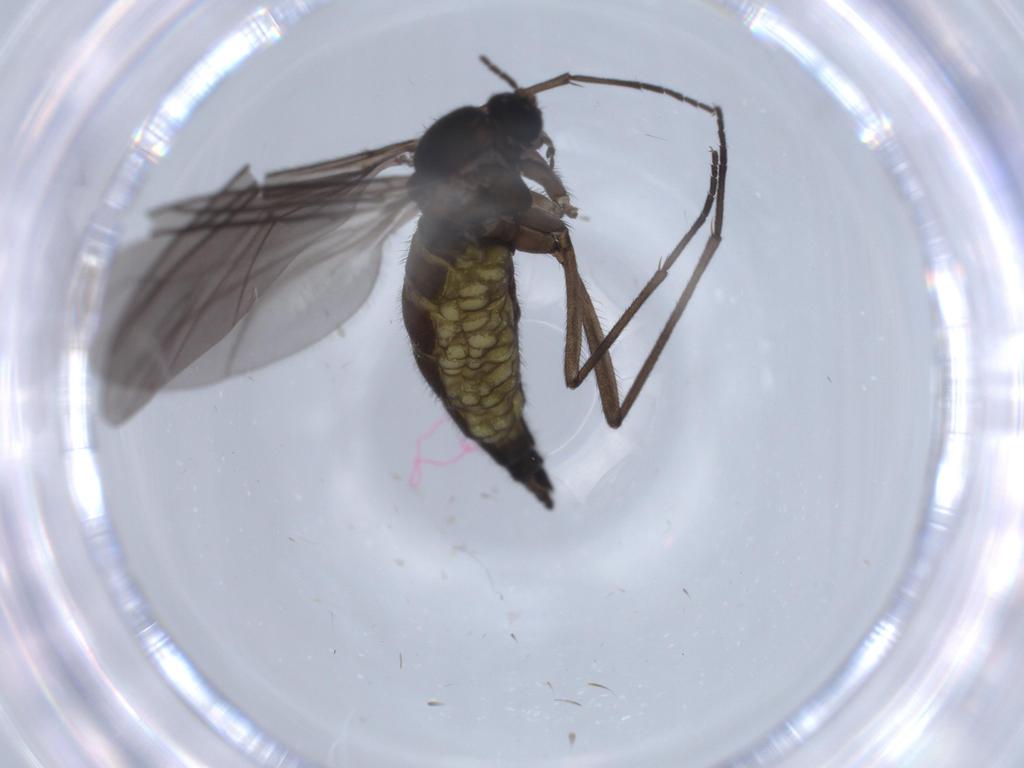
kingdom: Animalia
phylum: Arthropoda
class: Insecta
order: Diptera
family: Sciaridae
